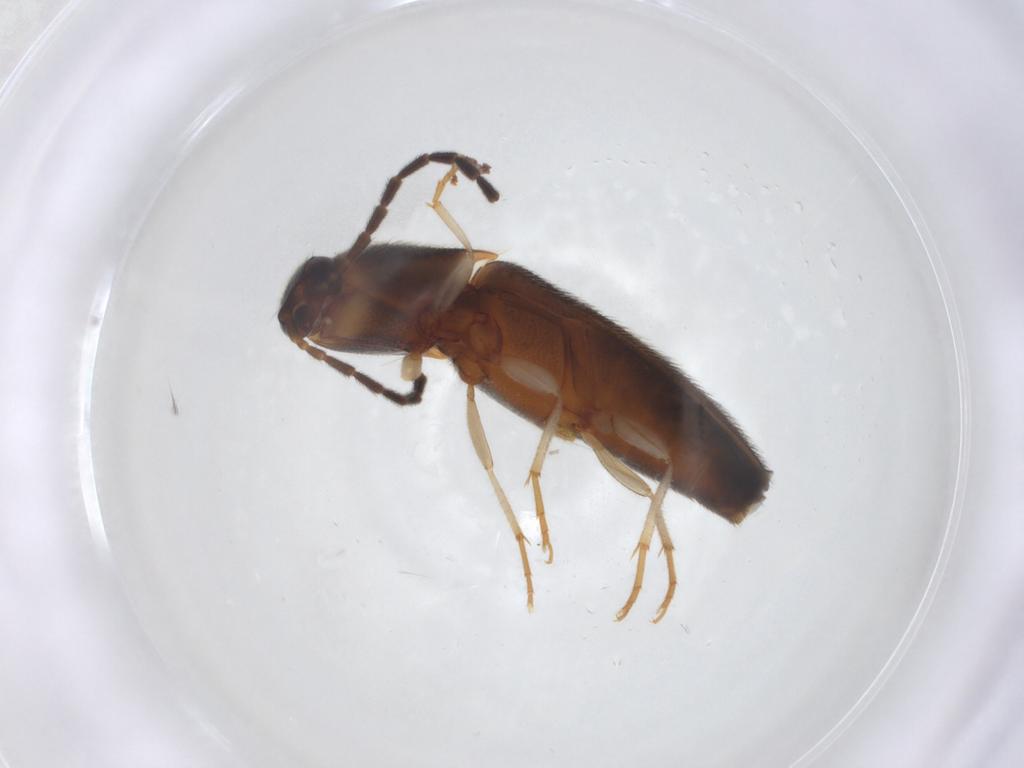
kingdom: Animalia
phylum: Arthropoda
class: Insecta
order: Coleoptera
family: Elateridae
